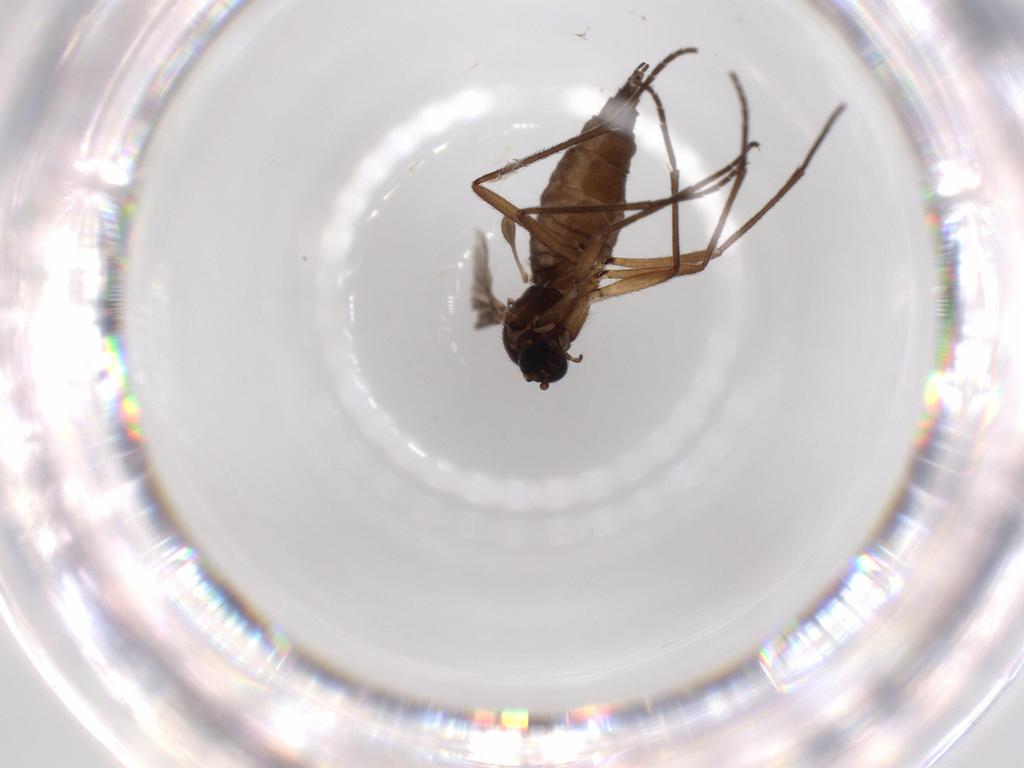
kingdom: Animalia
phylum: Arthropoda
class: Insecta
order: Diptera
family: Sciaridae
